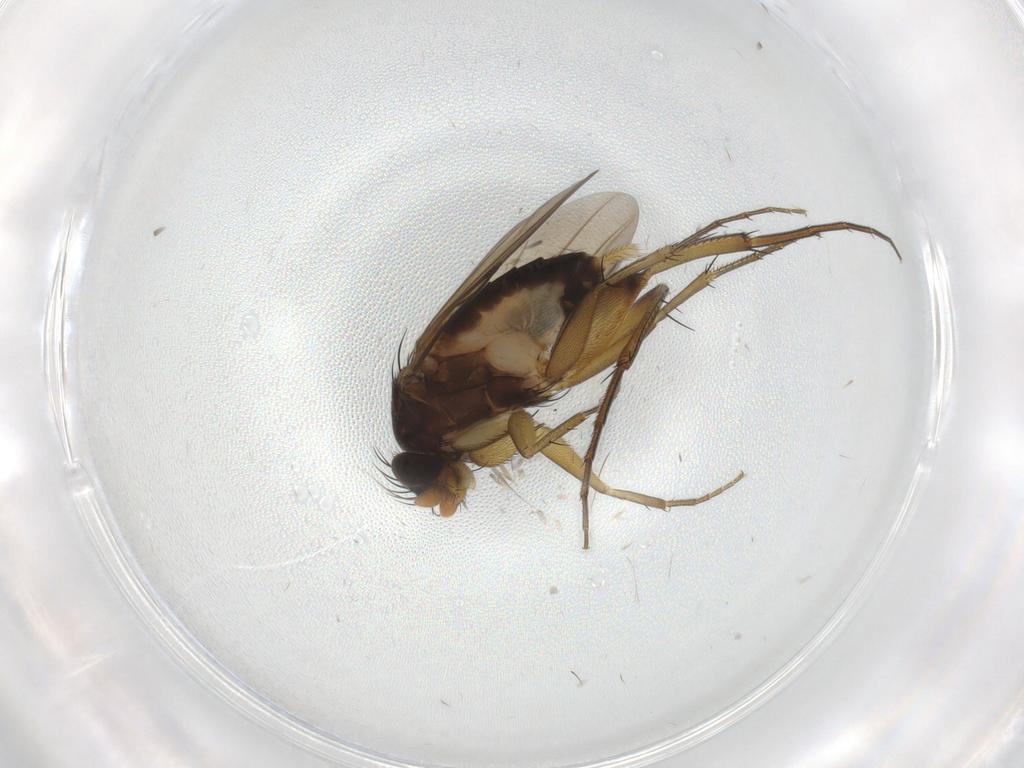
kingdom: Animalia
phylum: Arthropoda
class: Insecta
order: Diptera
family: Phoridae
